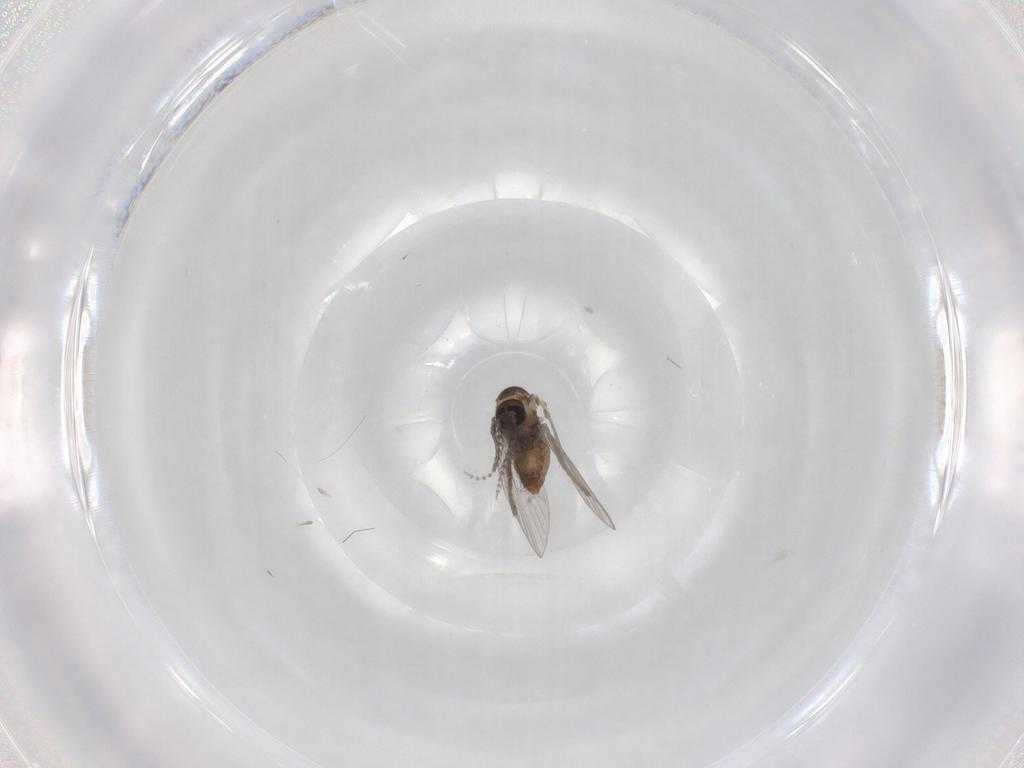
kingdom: Animalia
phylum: Arthropoda
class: Insecta
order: Diptera
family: Psychodidae
